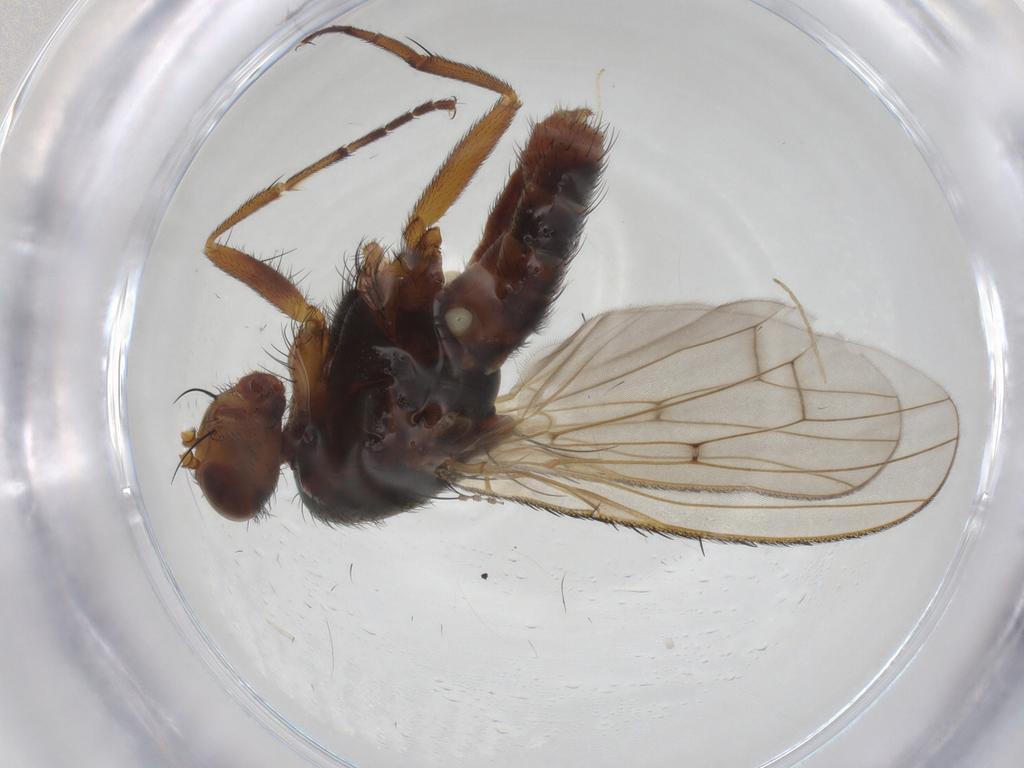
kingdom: Animalia
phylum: Arthropoda
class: Insecta
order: Diptera
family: Heleomyzidae
